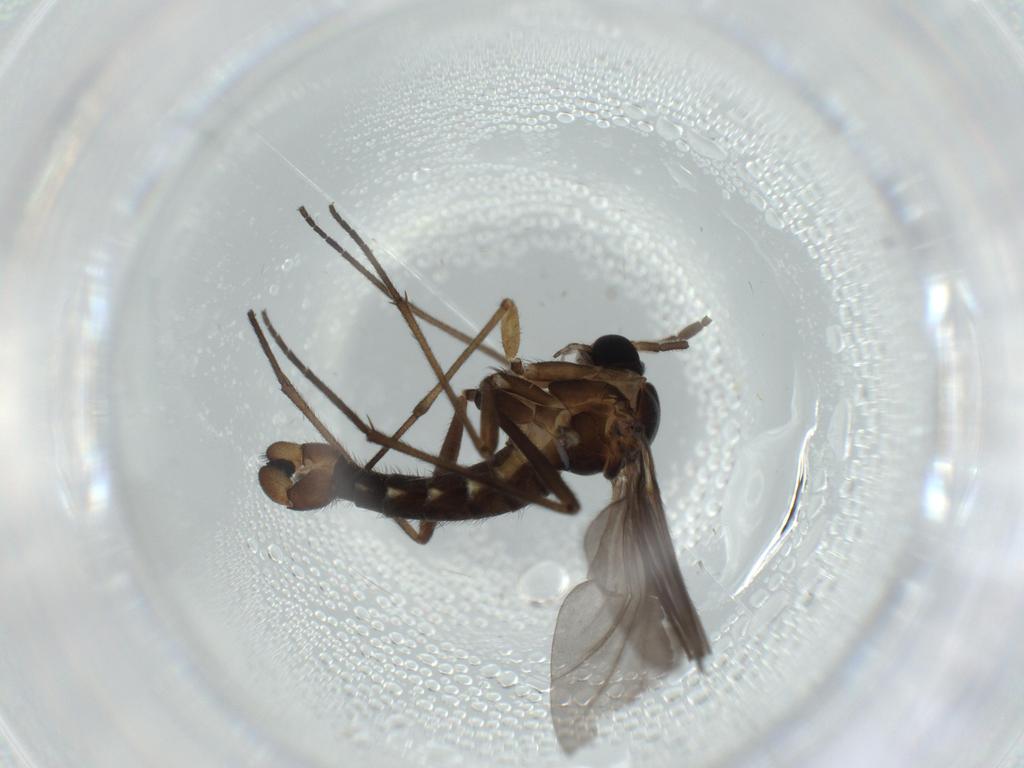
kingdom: Animalia
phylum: Arthropoda
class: Insecta
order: Diptera
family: Sciaridae
